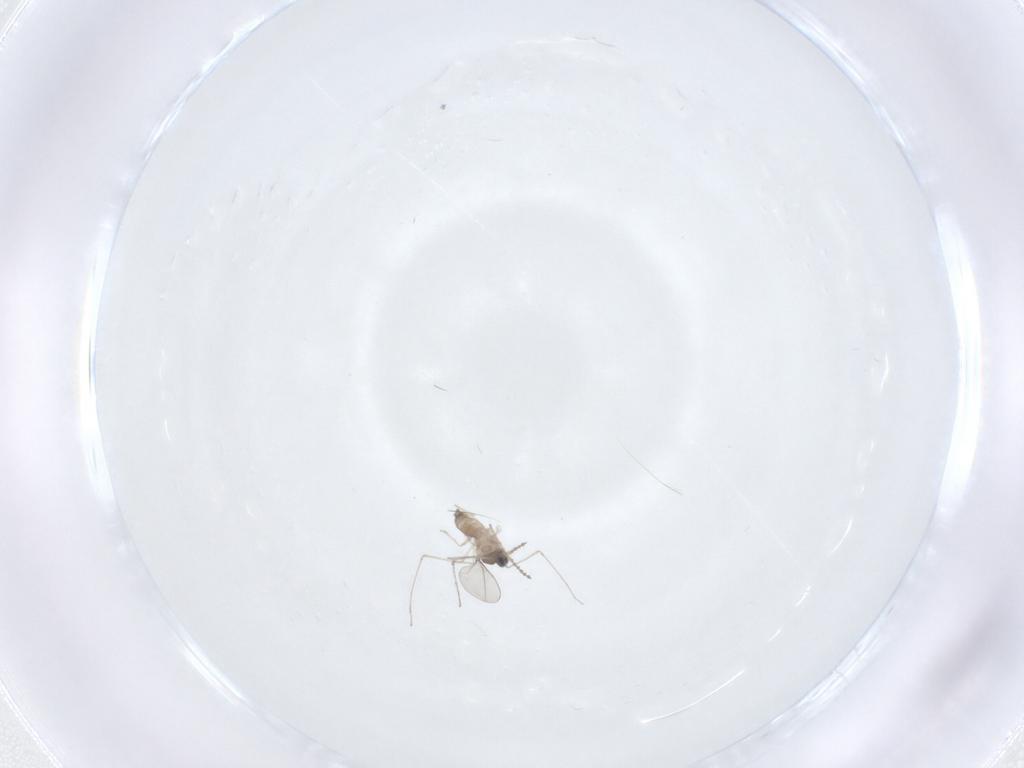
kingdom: Animalia
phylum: Arthropoda
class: Insecta
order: Diptera
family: Cecidomyiidae
